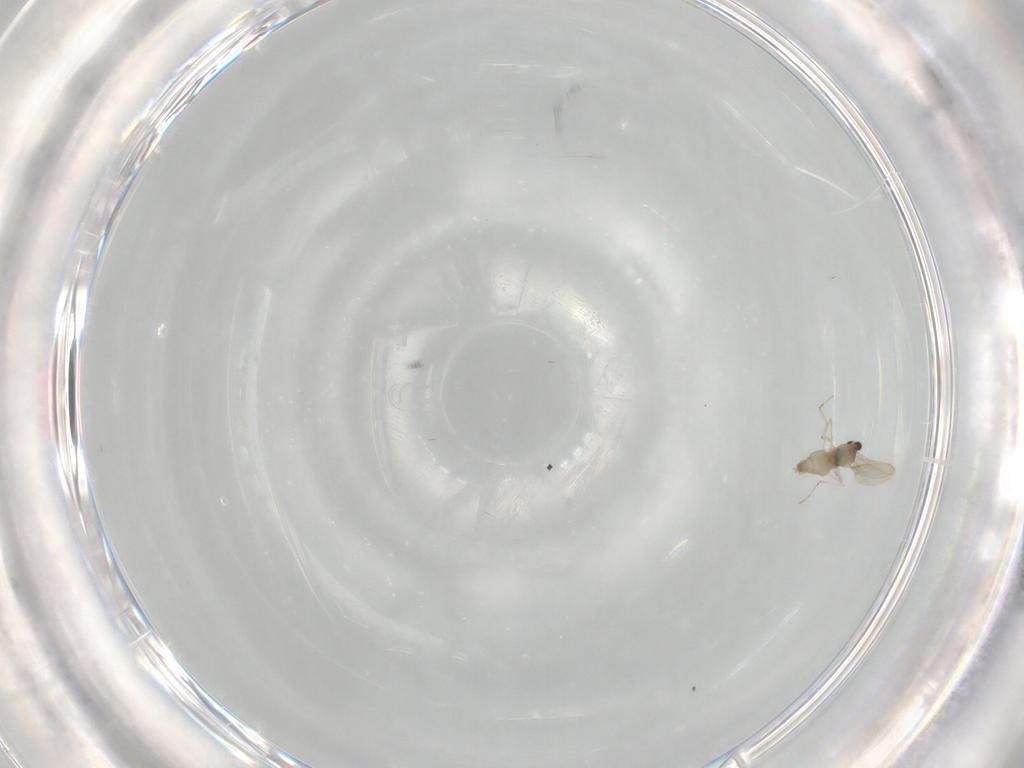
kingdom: Animalia
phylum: Arthropoda
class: Insecta
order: Diptera
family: Cecidomyiidae
